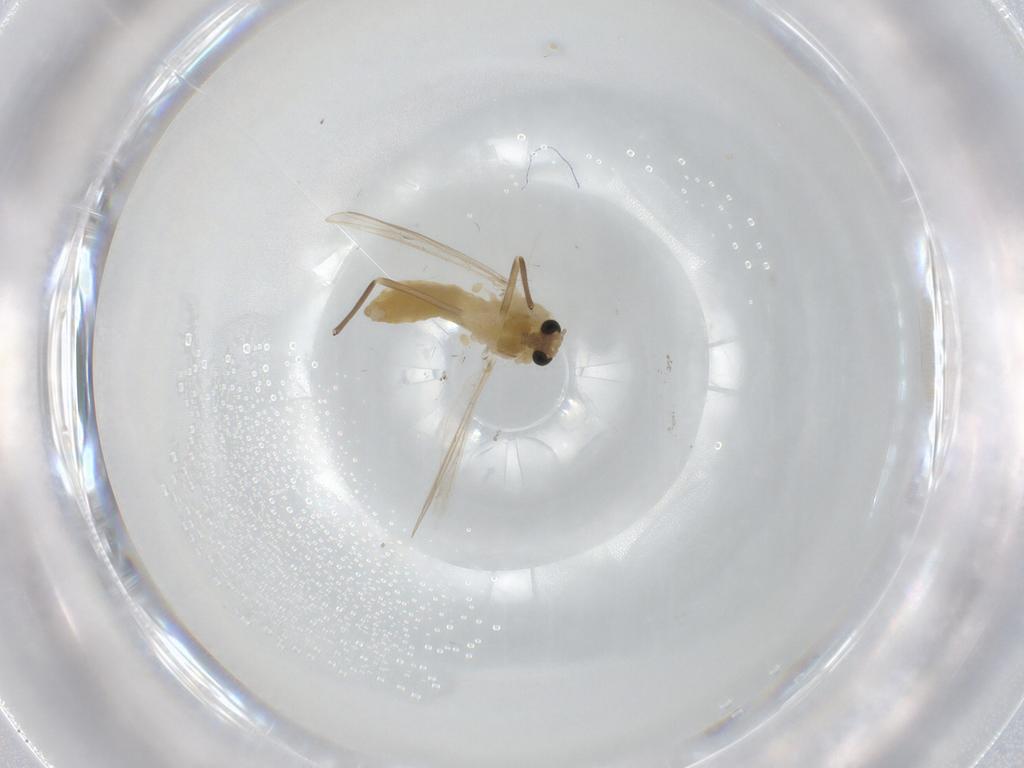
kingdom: Animalia
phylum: Arthropoda
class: Insecta
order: Diptera
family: Chironomidae
